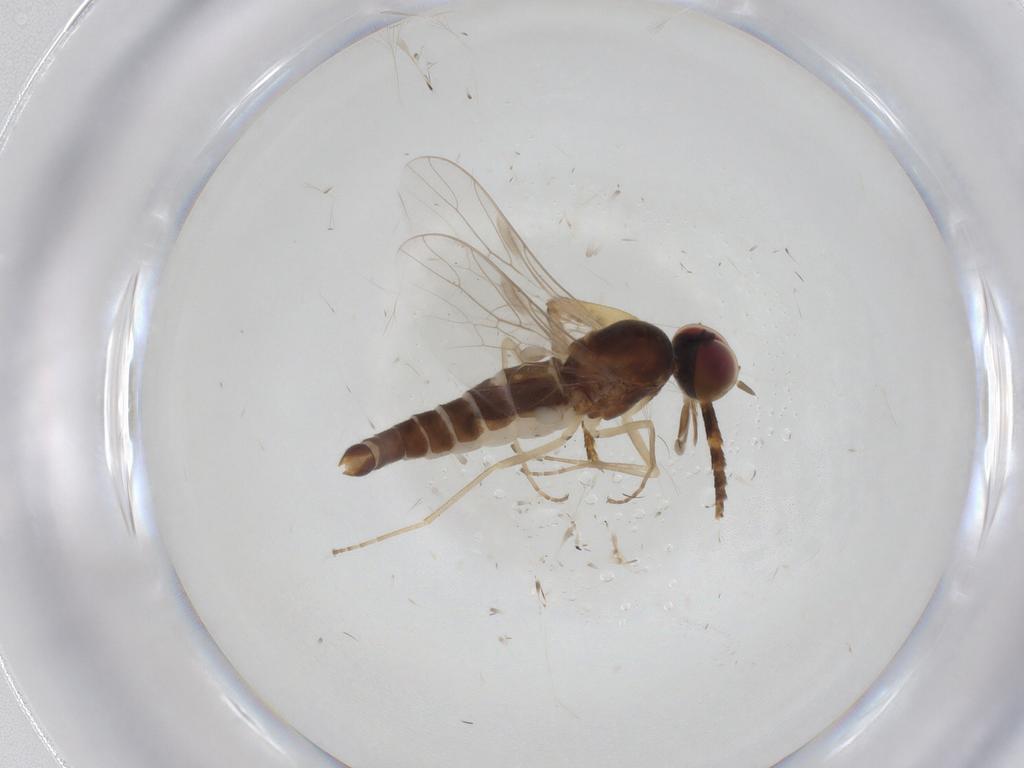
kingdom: Animalia
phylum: Arthropoda
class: Insecta
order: Diptera
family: Scenopinidae
